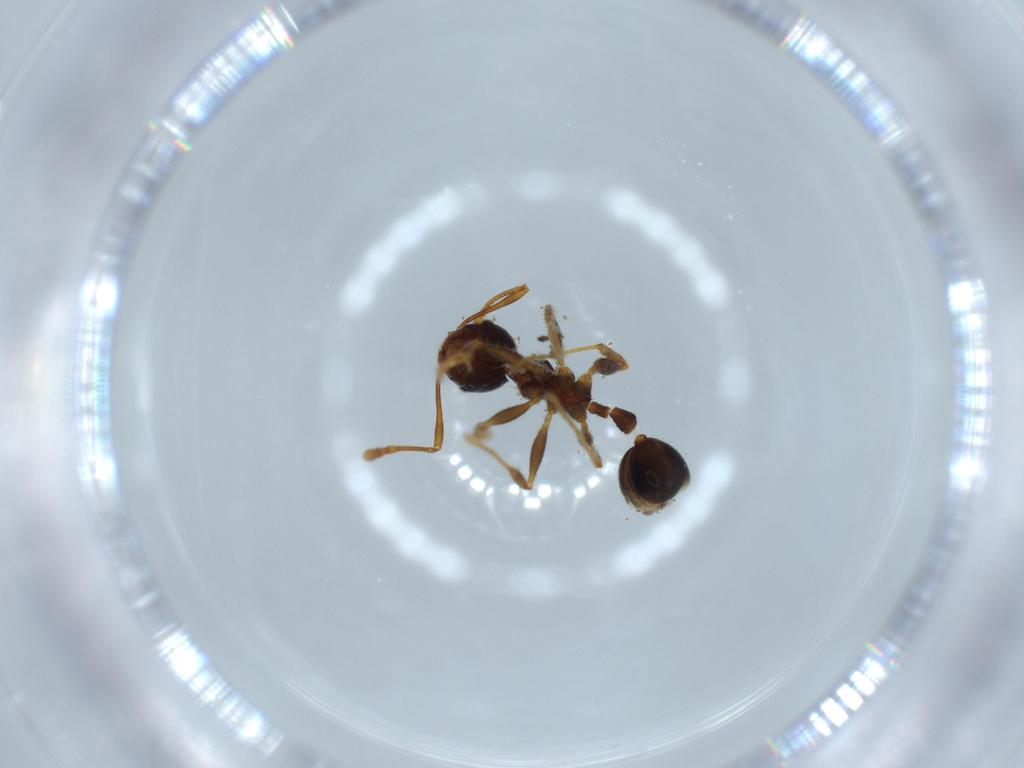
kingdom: Animalia
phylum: Arthropoda
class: Insecta
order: Hymenoptera
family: Formicidae
